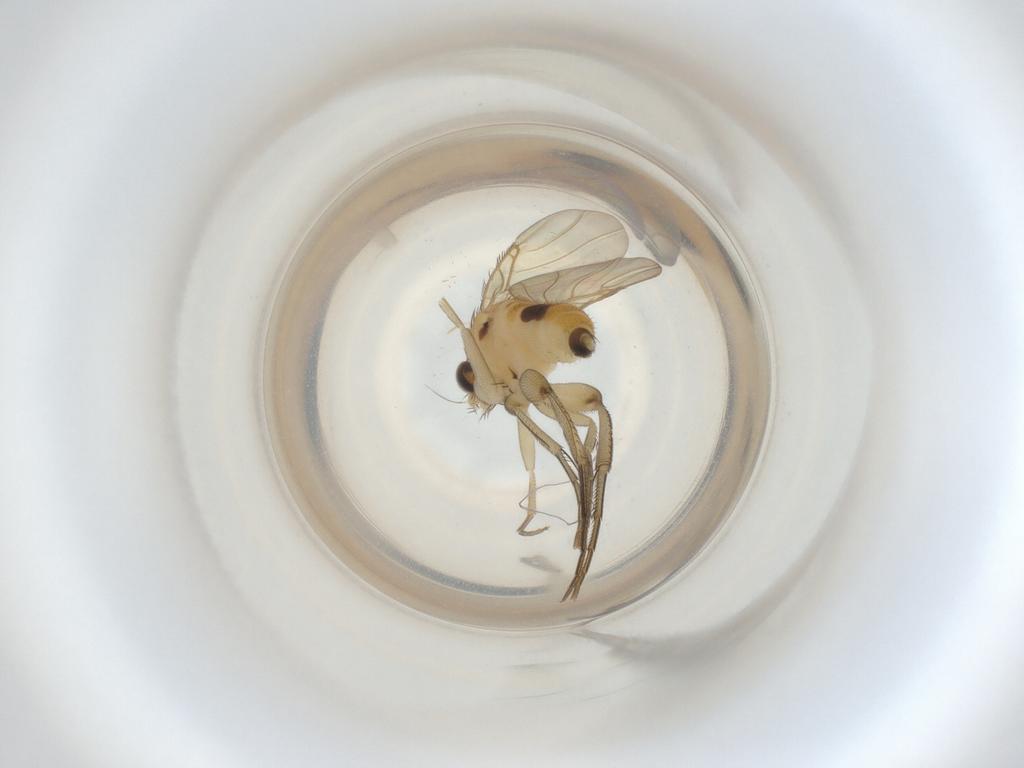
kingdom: Animalia
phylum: Arthropoda
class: Insecta
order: Diptera
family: Phoridae
